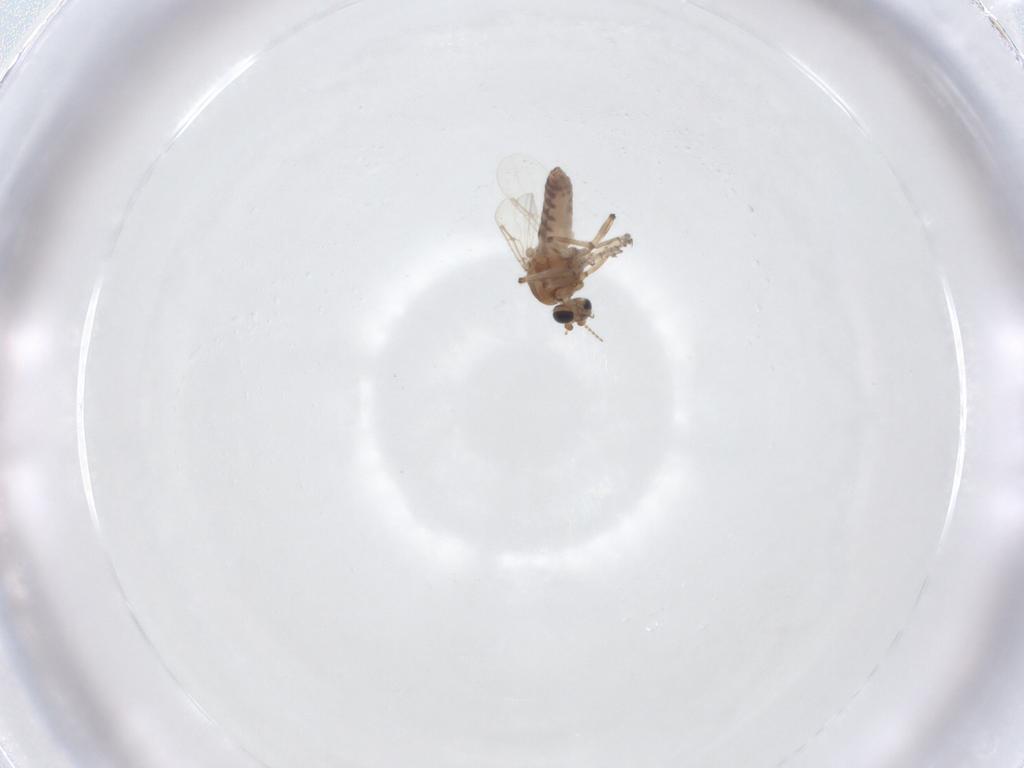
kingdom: Animalia
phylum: Arthropoda
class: Insecta
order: Diptera
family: Ceratopogonidae
